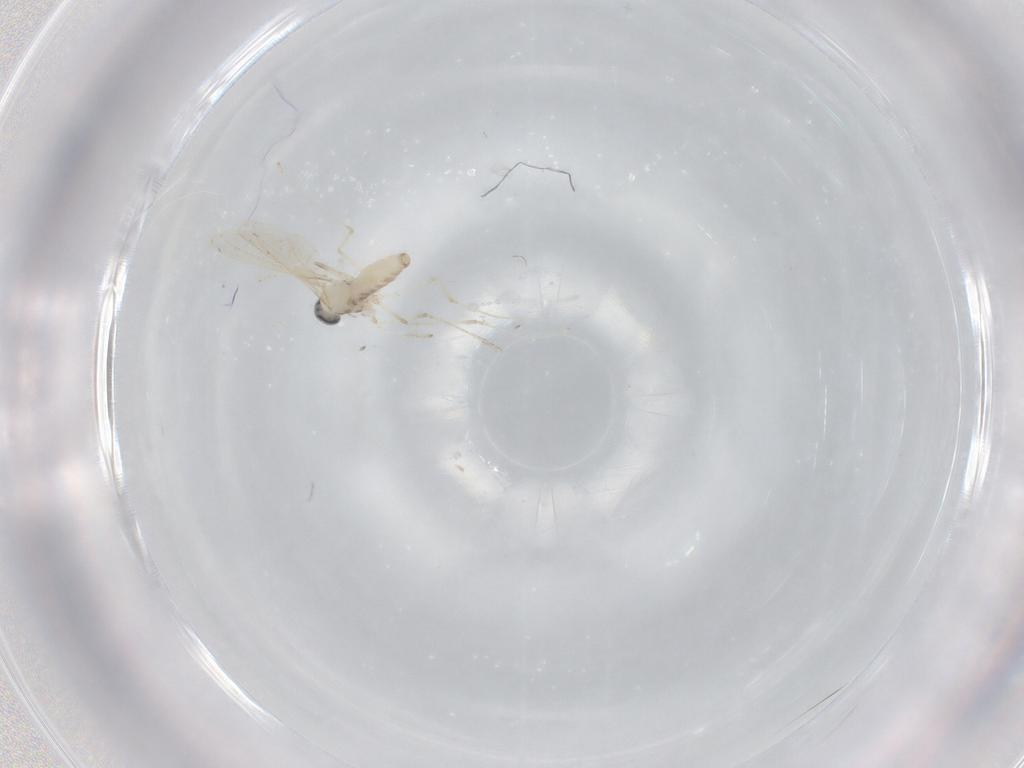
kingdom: Animalia
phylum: Arthropoda
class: Insecta
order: Diptera
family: Cecidomyiidae
